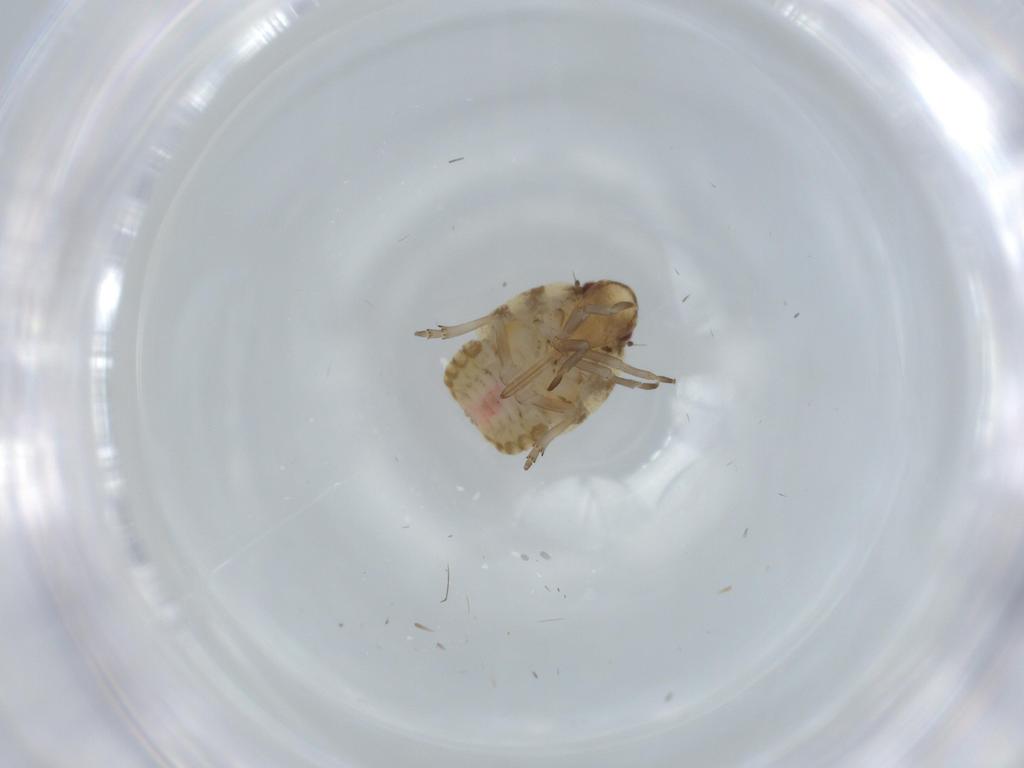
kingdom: Animalia
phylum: Arthropoda
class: Insecta
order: Hemiptera
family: Flatidae
